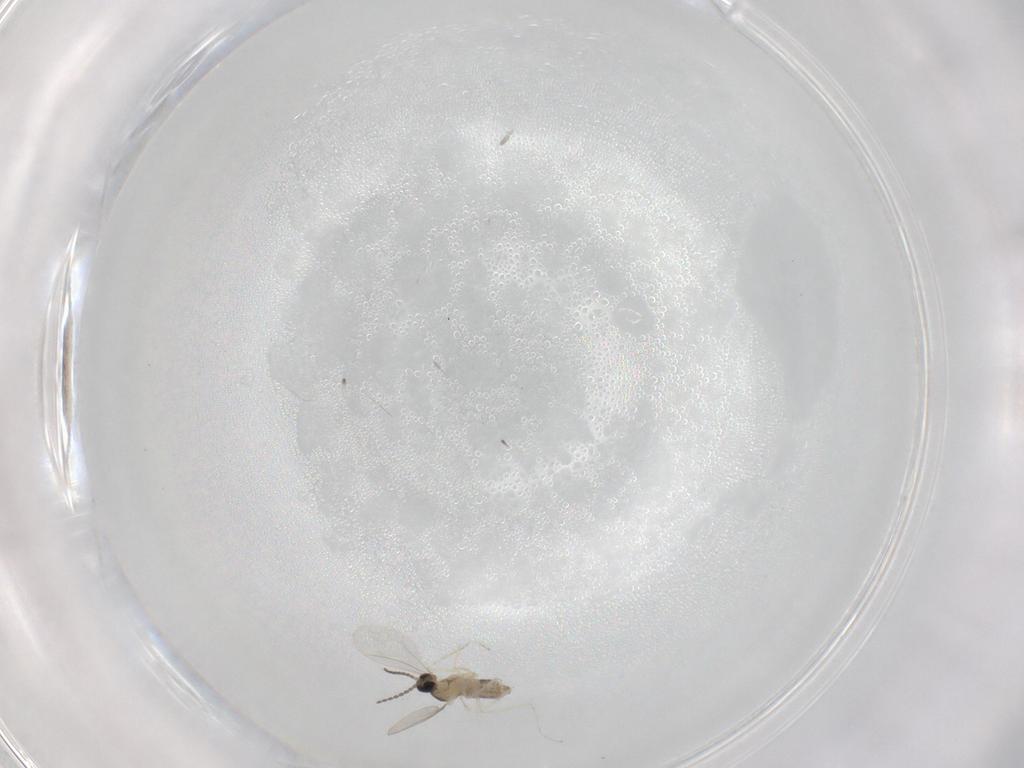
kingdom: Animalia
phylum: Arthropoda
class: Insecta
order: Diptera
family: Cecidomyiidae
